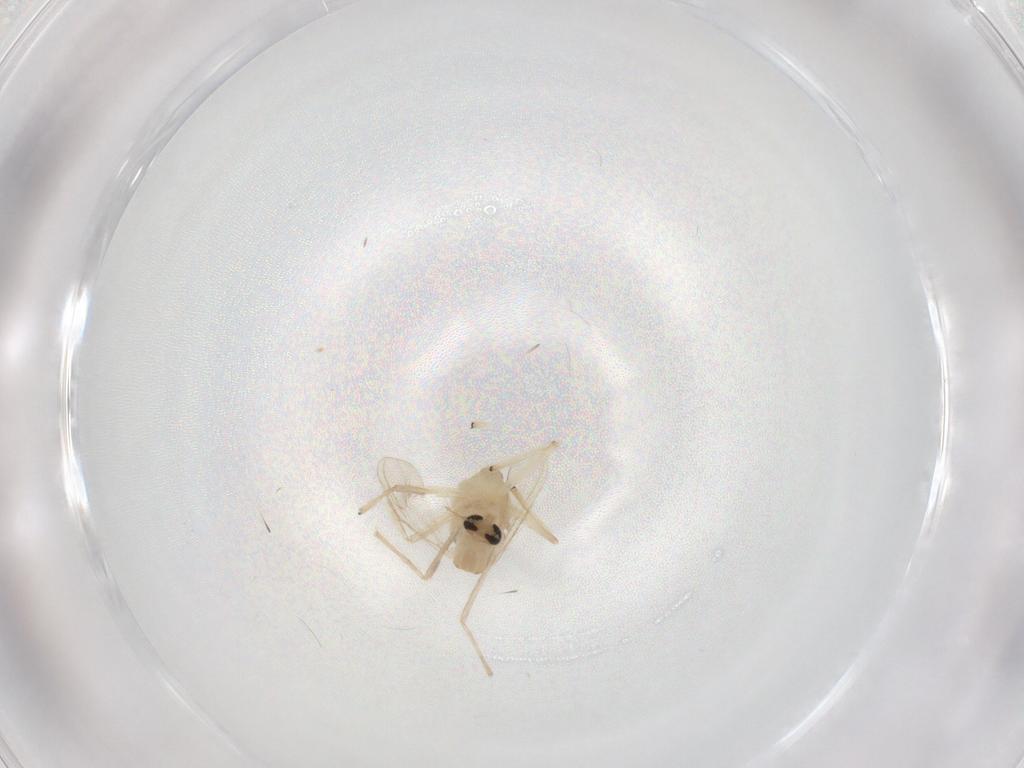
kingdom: Animalia
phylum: Arthropoda
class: Insecta
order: Diptera
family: Chironomidae
